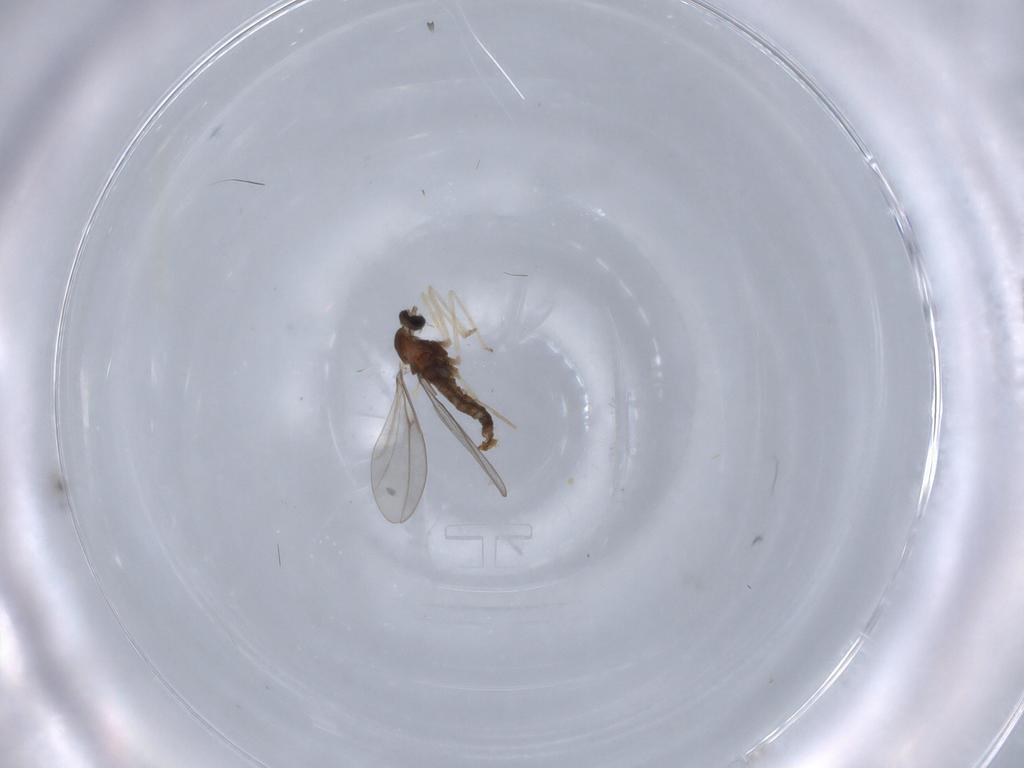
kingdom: Animalia
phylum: Arthropoda
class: Insecta
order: Diptera
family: Cecidomyiidae
